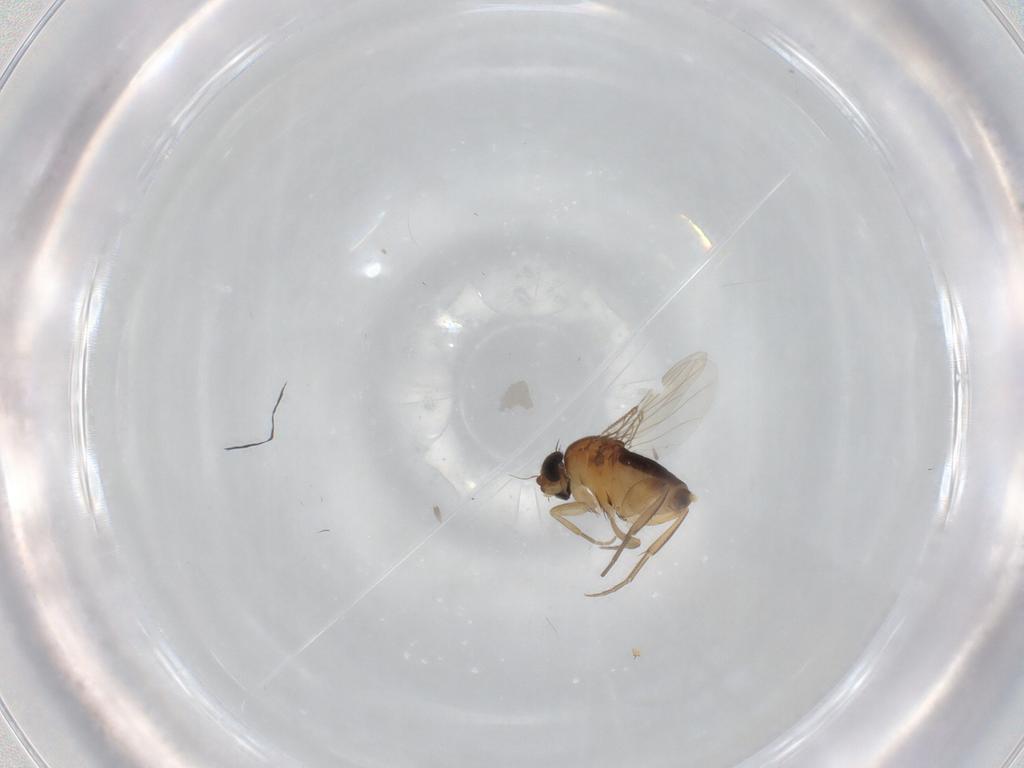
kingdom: Animalia
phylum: Arthropoda
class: Insecta
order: Diptera
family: Phoridae
